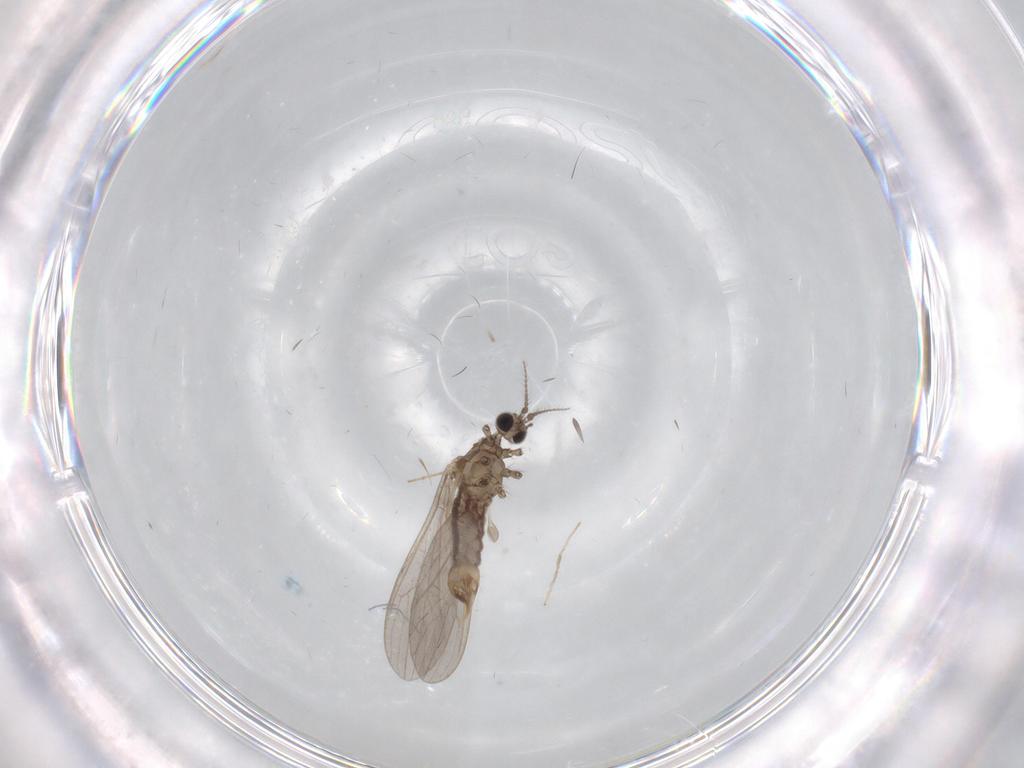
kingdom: Animalia
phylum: Arthropoda
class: Insecta
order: Diptera
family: Limoniidae
